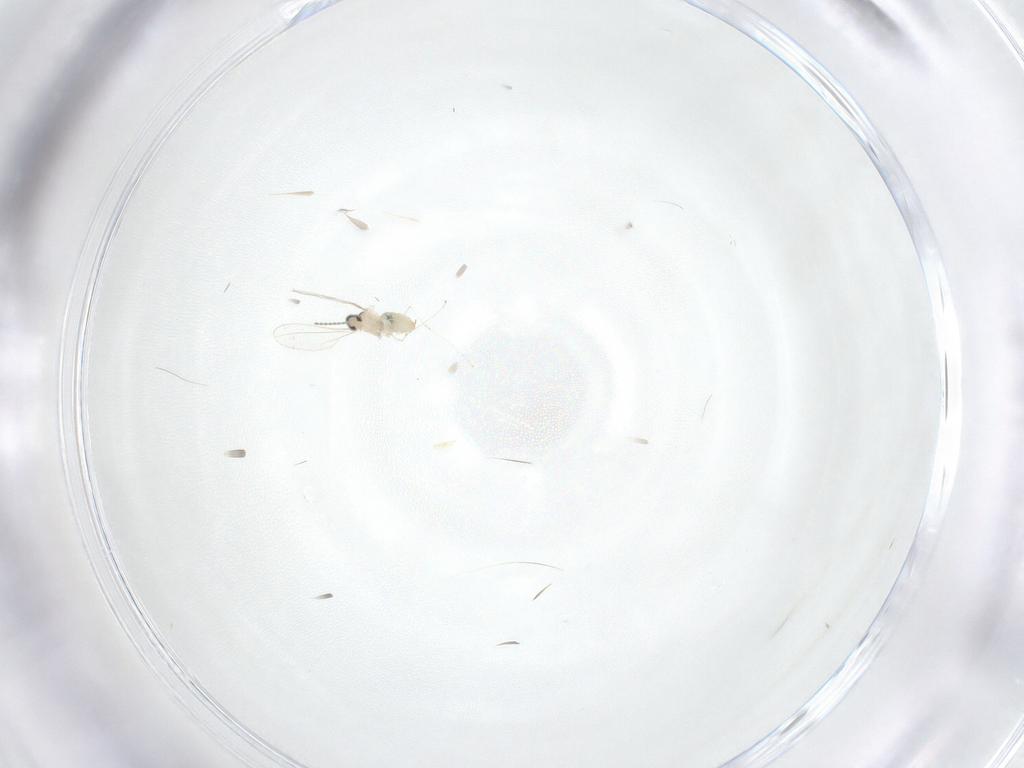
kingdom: Animalia
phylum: Arthropoda
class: Insecta
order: Diptera
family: Cecidomyiidae
